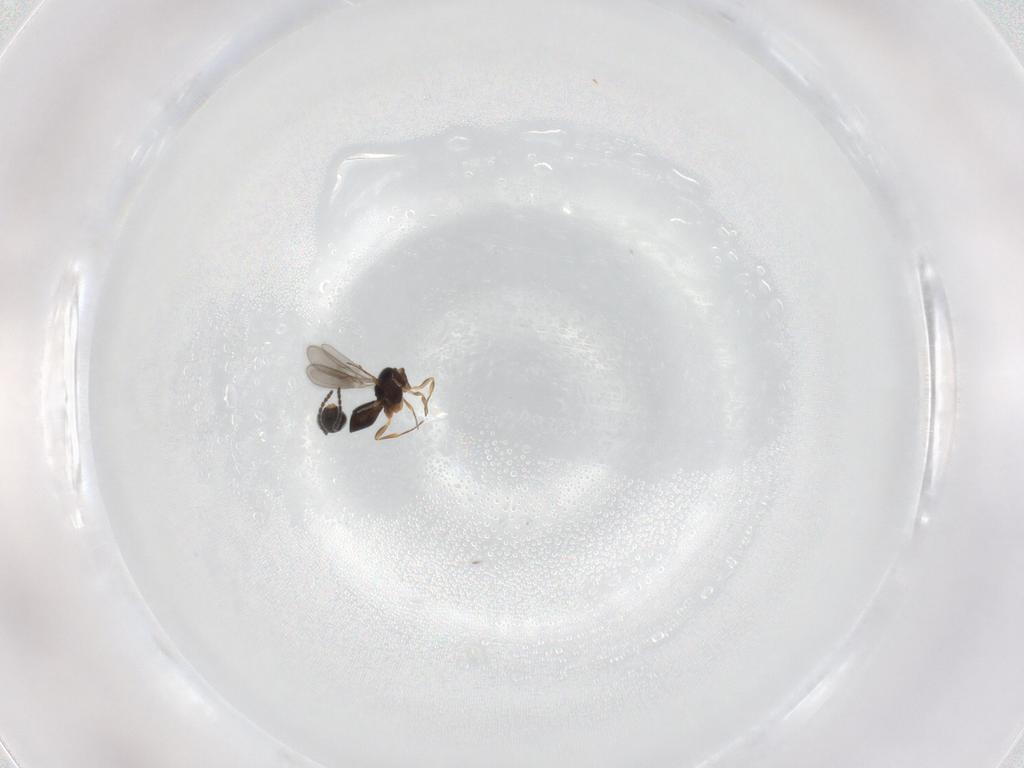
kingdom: Animalia
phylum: Arthropoda
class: Insecta
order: Hymenoptera
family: Scelionidae
